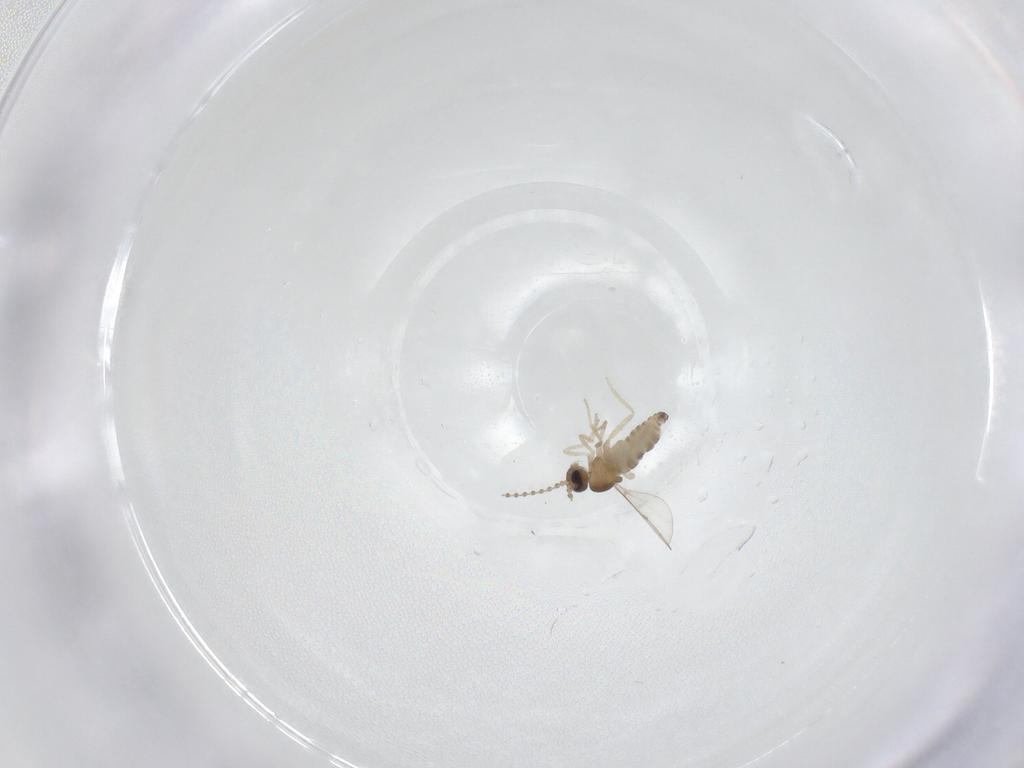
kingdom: Animalia
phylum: Arthropoda
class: Insecta
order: Diptera
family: Cecidomyiidae
